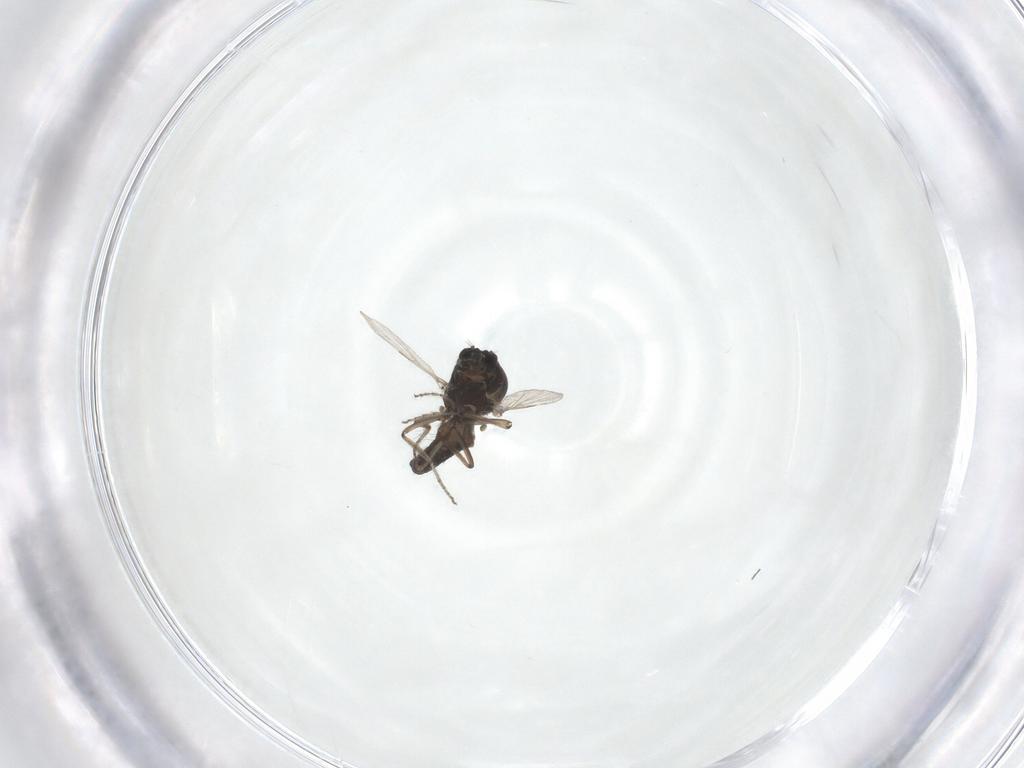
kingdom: Animalia
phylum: Arthropoda
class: Insecta
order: Diptera
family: Ceratopogonidae
